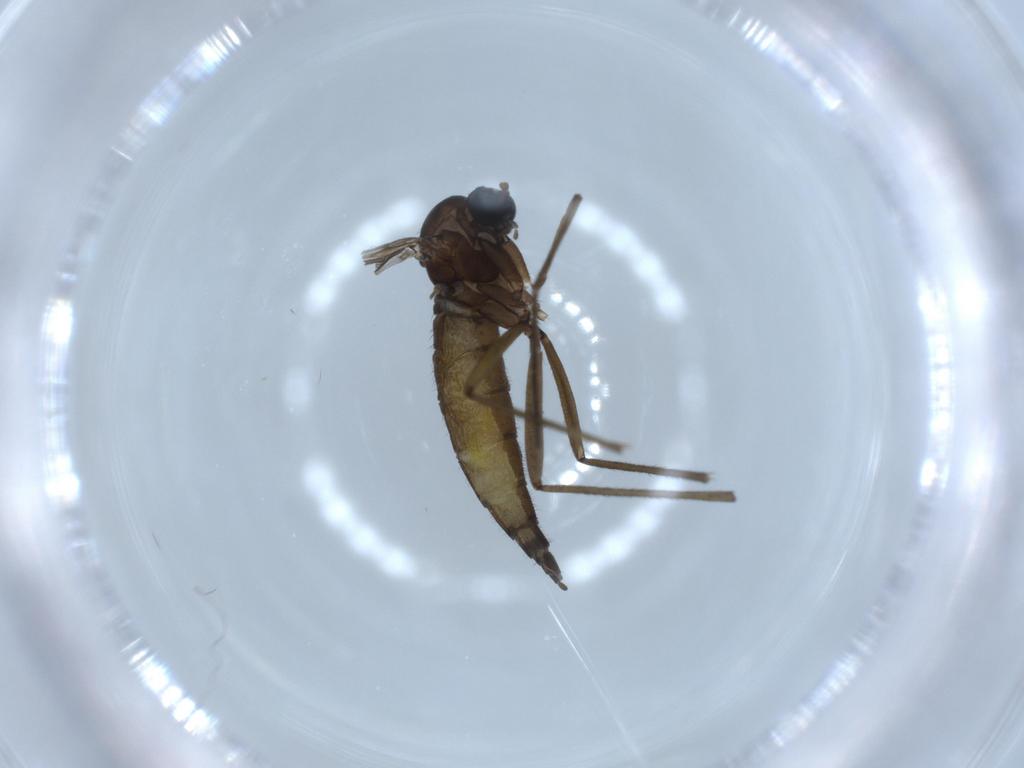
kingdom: Animalia
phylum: Arthropoda
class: Insecta
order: Diptera
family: Sciaridae
